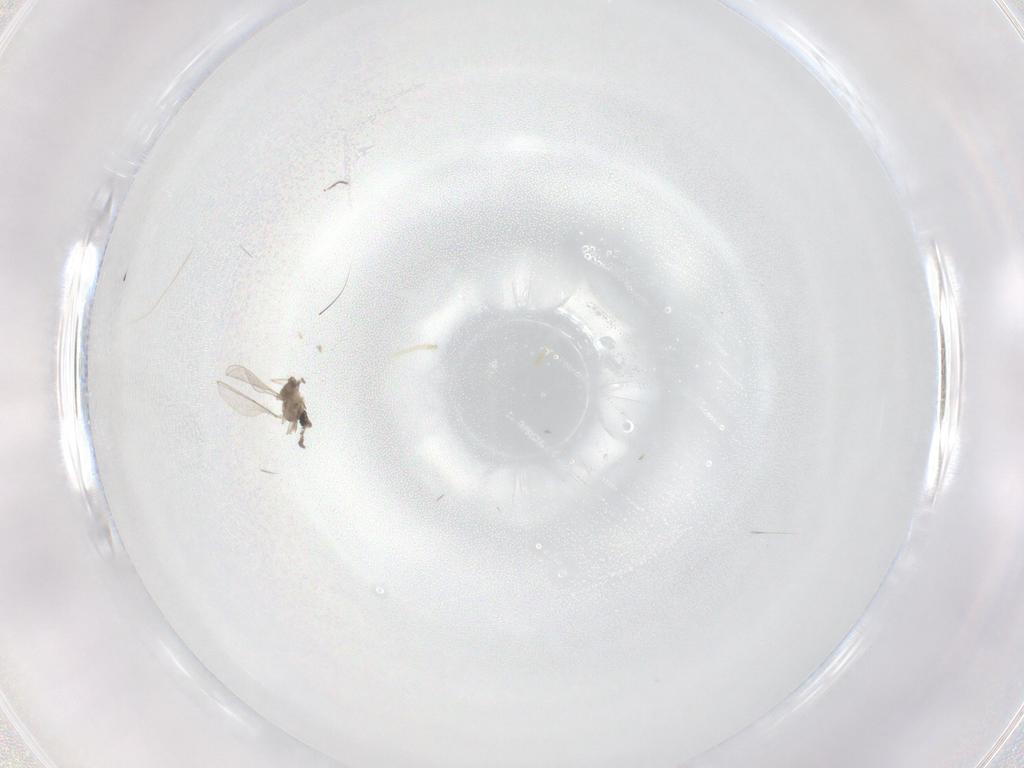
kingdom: Animalia
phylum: Arthropoda
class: Insecta
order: Diptera
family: Cecidomyiidae
